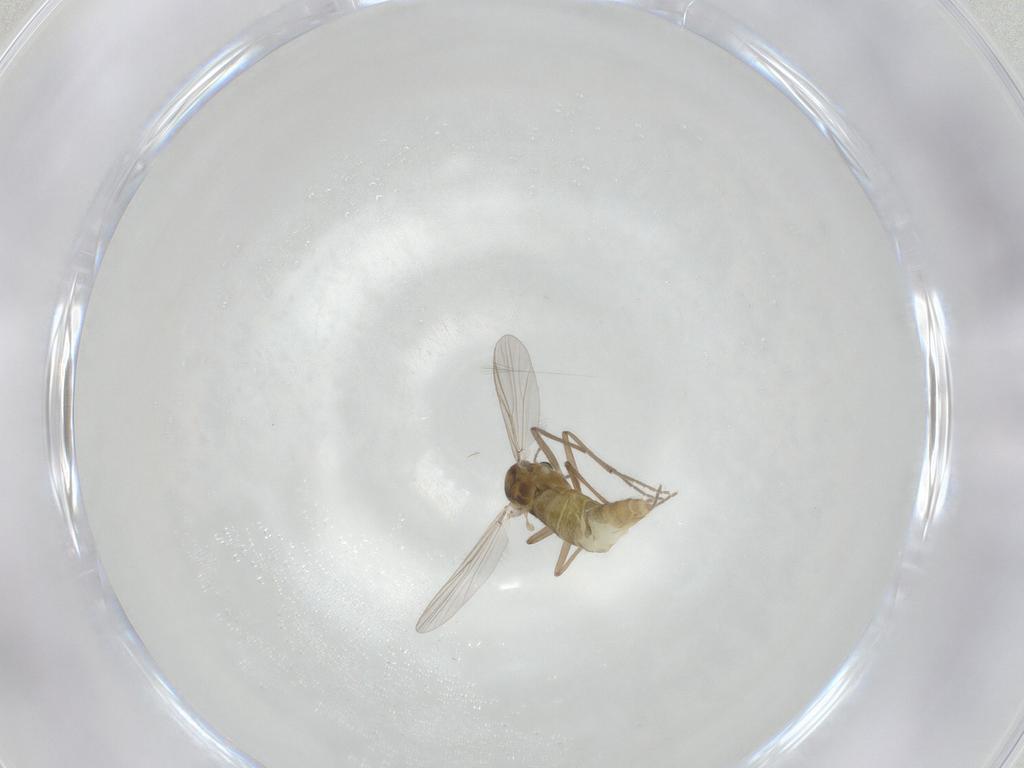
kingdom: Animalia
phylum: Arthropoda
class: Insecta
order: Diptera
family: Chironomidae
